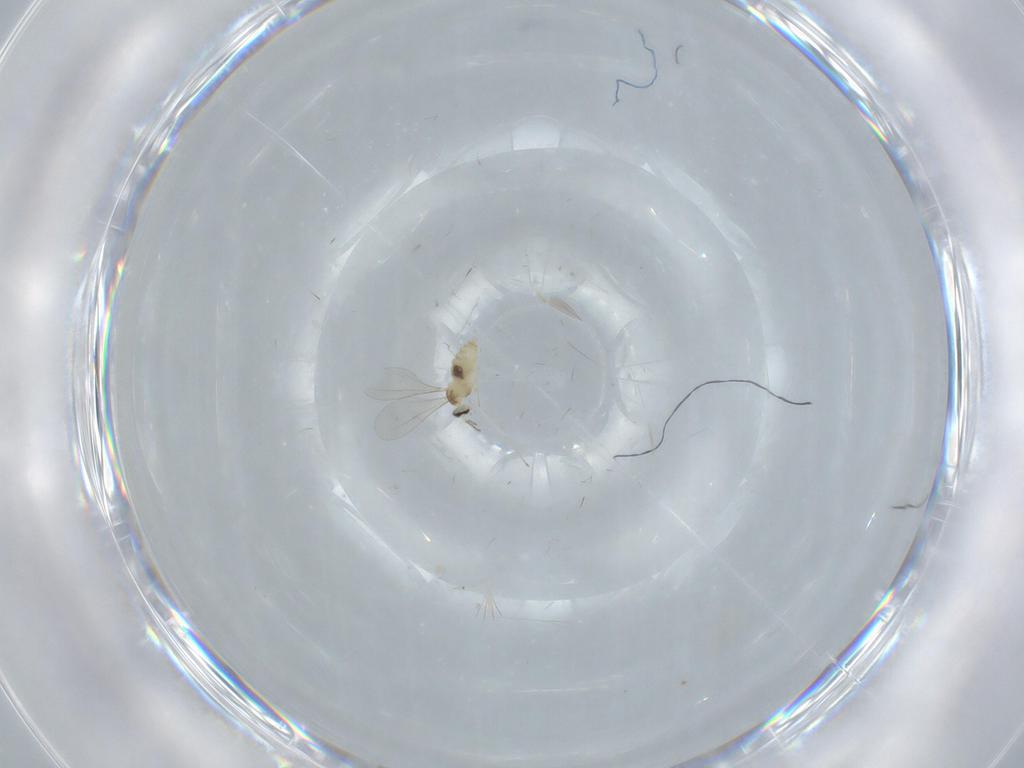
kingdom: Animalia
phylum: Arthropoda
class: Insecta
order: Diptera
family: Cecidomyiidae
